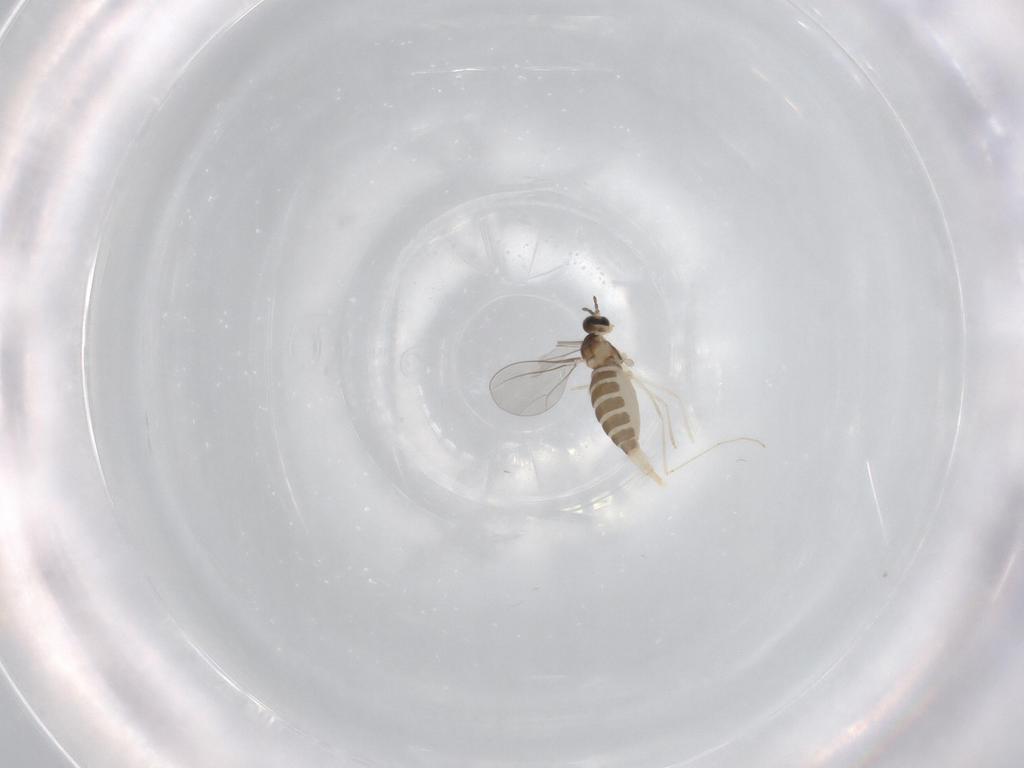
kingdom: Animalia
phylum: Arthropoda
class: Insecta
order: Diptera
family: Cecidomyiidae
